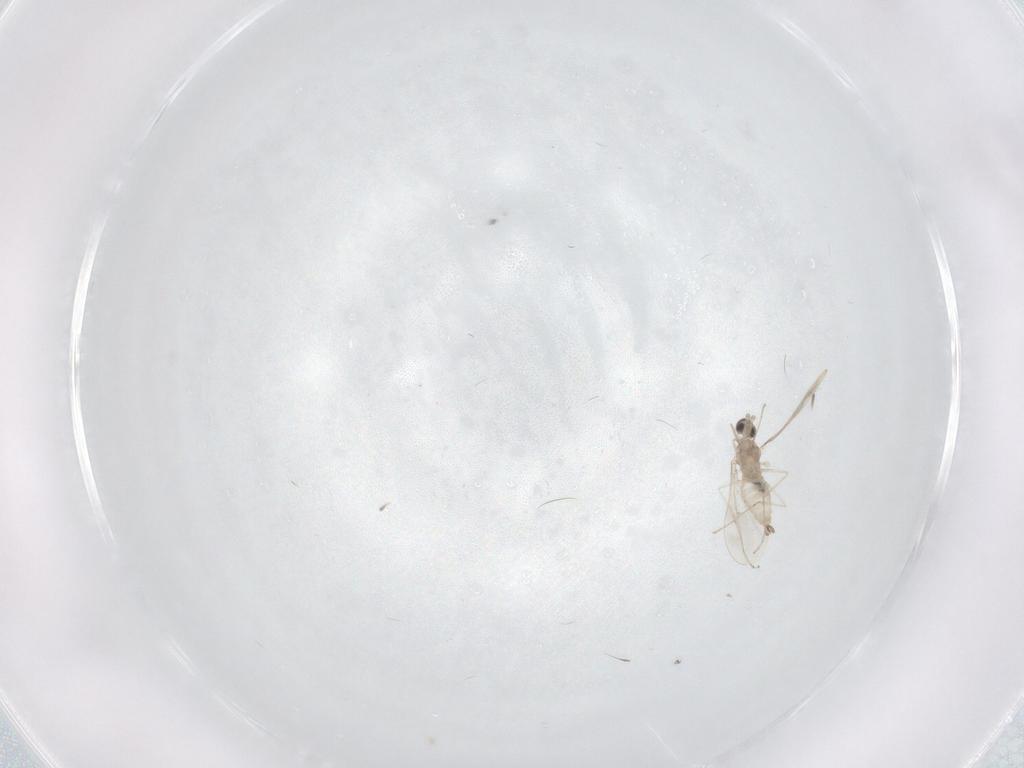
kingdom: Animalia
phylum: Arthropoda
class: Insecta
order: Diptera
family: Cecidomyiidae
